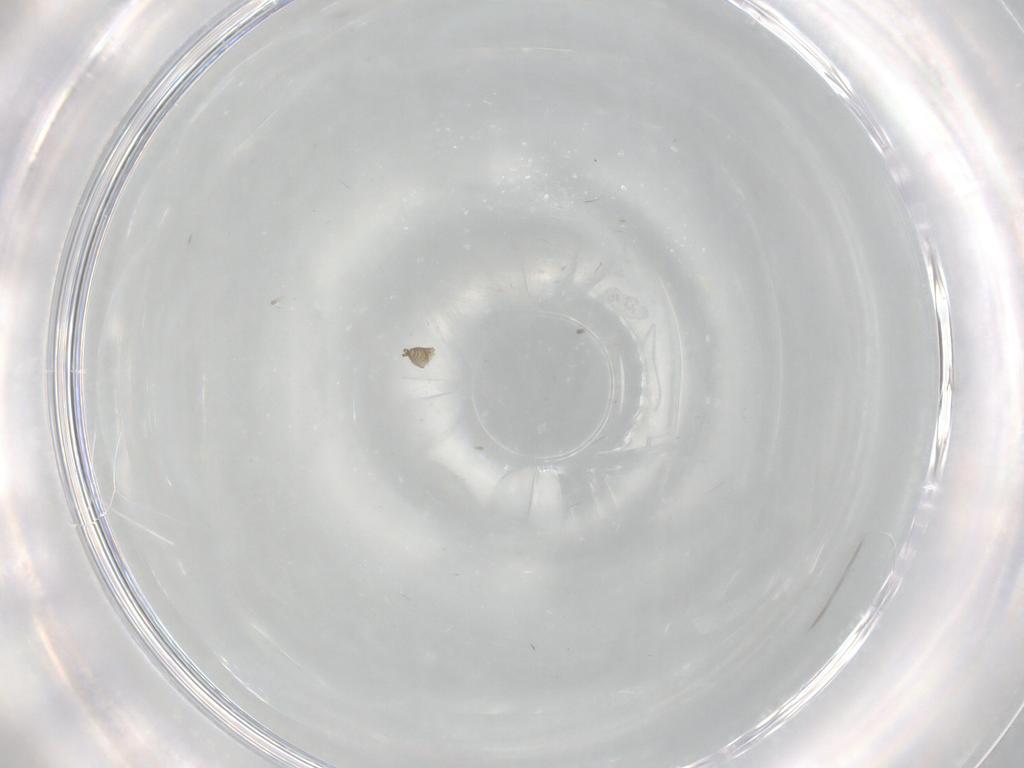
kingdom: Animalia
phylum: Arthropoda
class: Insecta
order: Diptera
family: Cecidomyiidae
